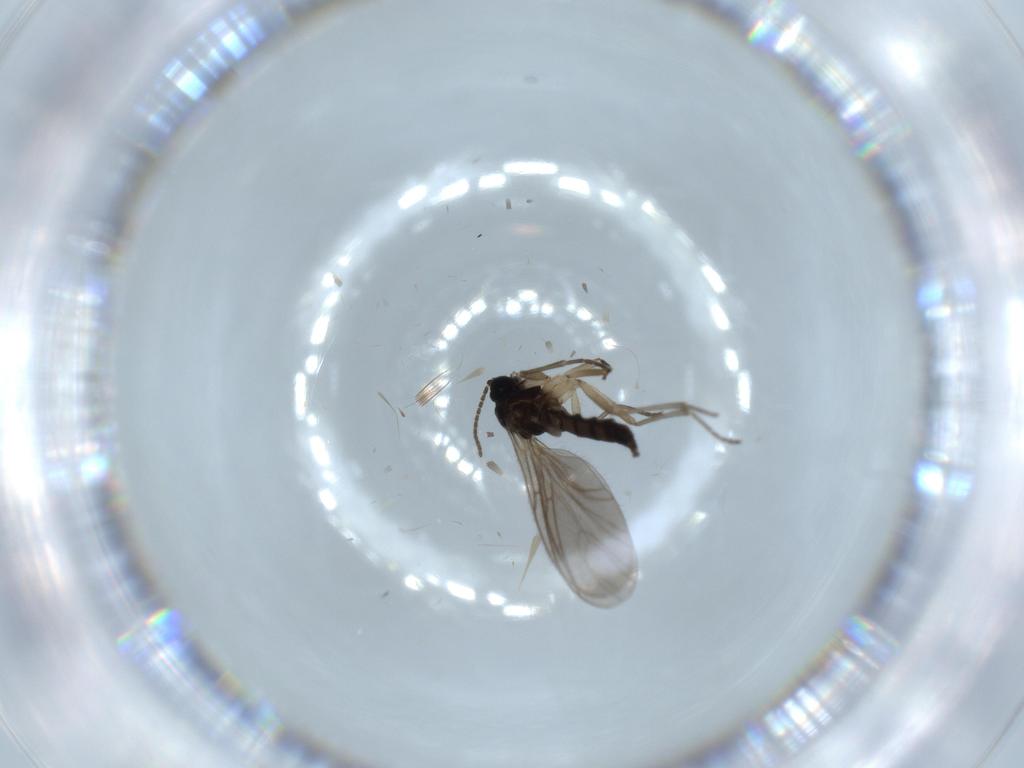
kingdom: Animalia
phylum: Arthropoda
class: Insecta
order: Diptera
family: Sciaridae
